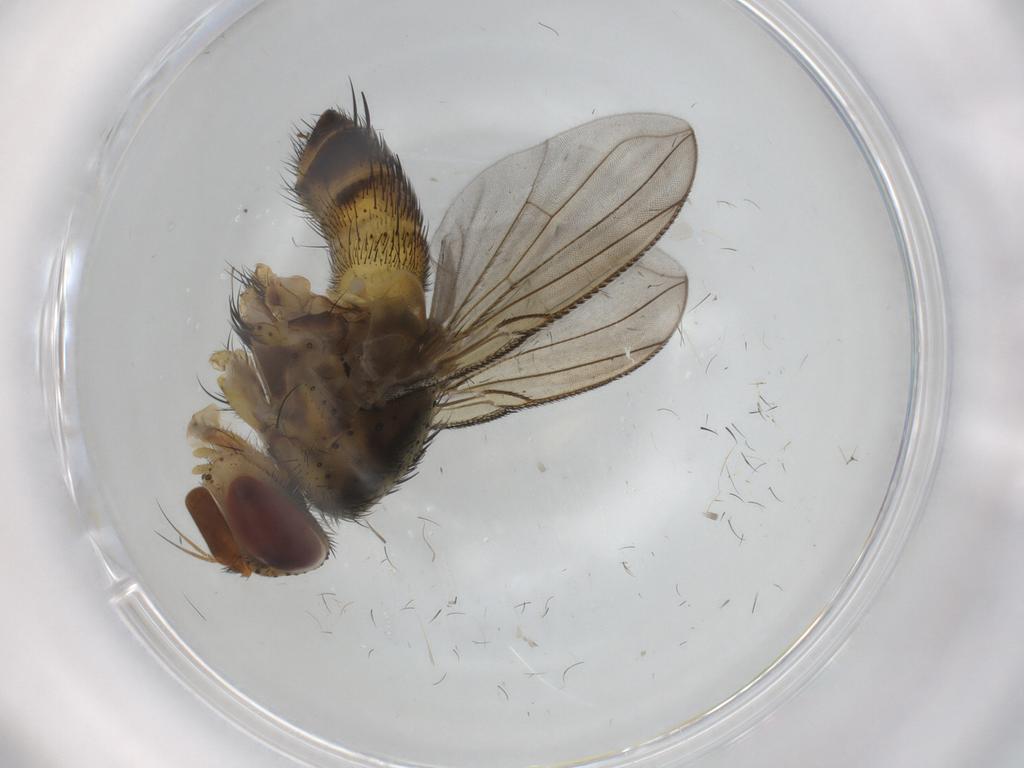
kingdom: Animalia
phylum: Arthropoda
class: Insecta
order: Diptera
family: Tachinidae
